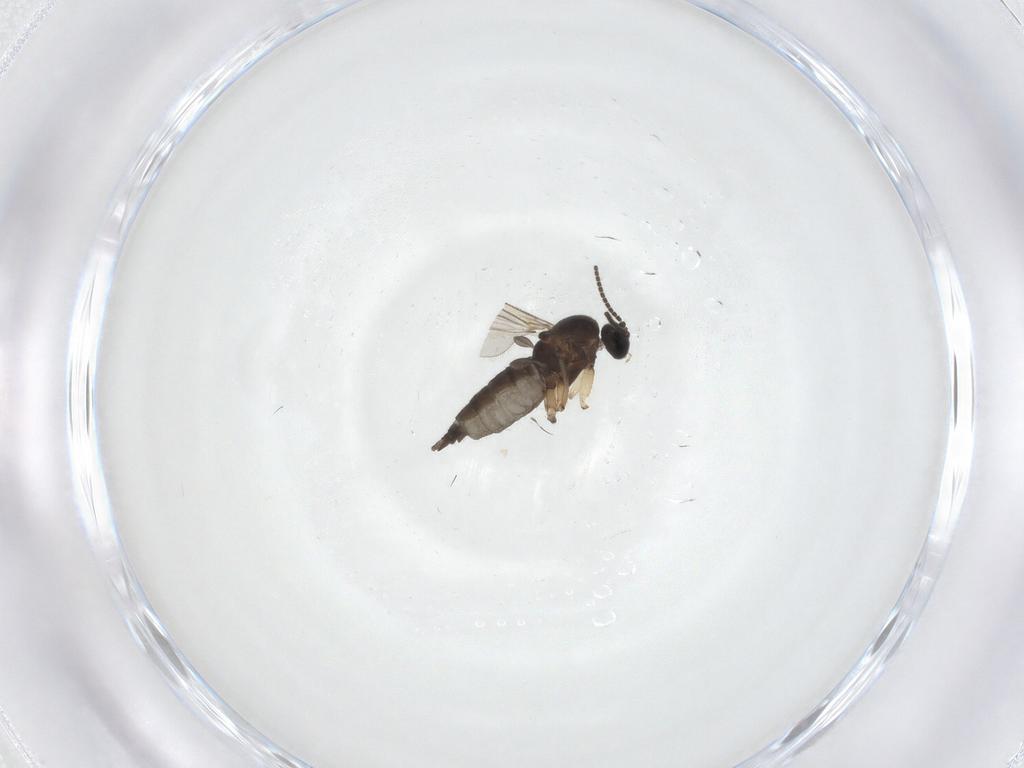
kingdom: Animalia
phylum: Arthropoda
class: Insecta
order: Diptera
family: Sciaridae
